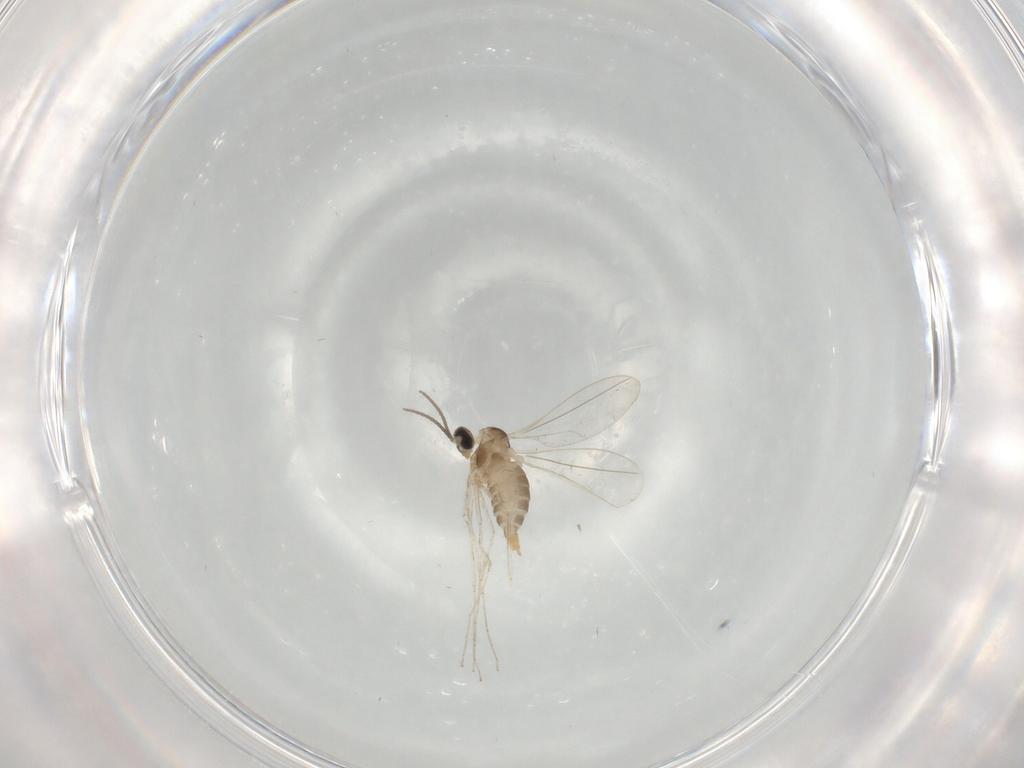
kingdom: Animalia
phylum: Arthropoda
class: Insecta
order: Diptera
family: Cecidomyiidae
